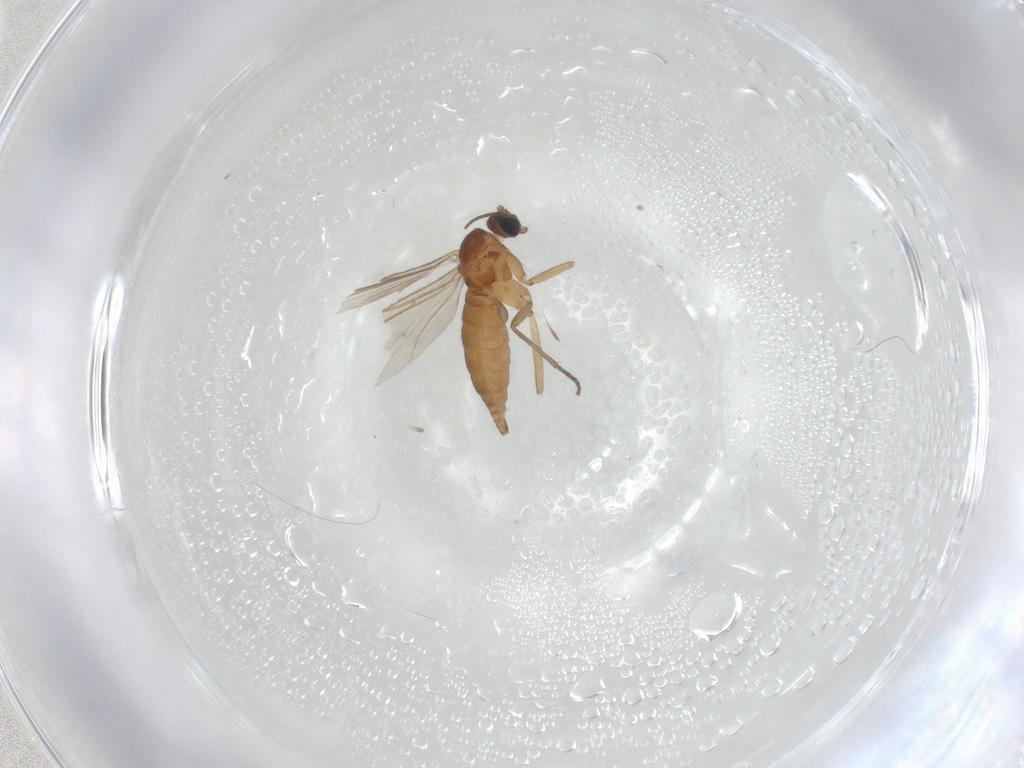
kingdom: Animalia
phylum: Arthropoda
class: Insecta
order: Diptera
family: Sciaridae
